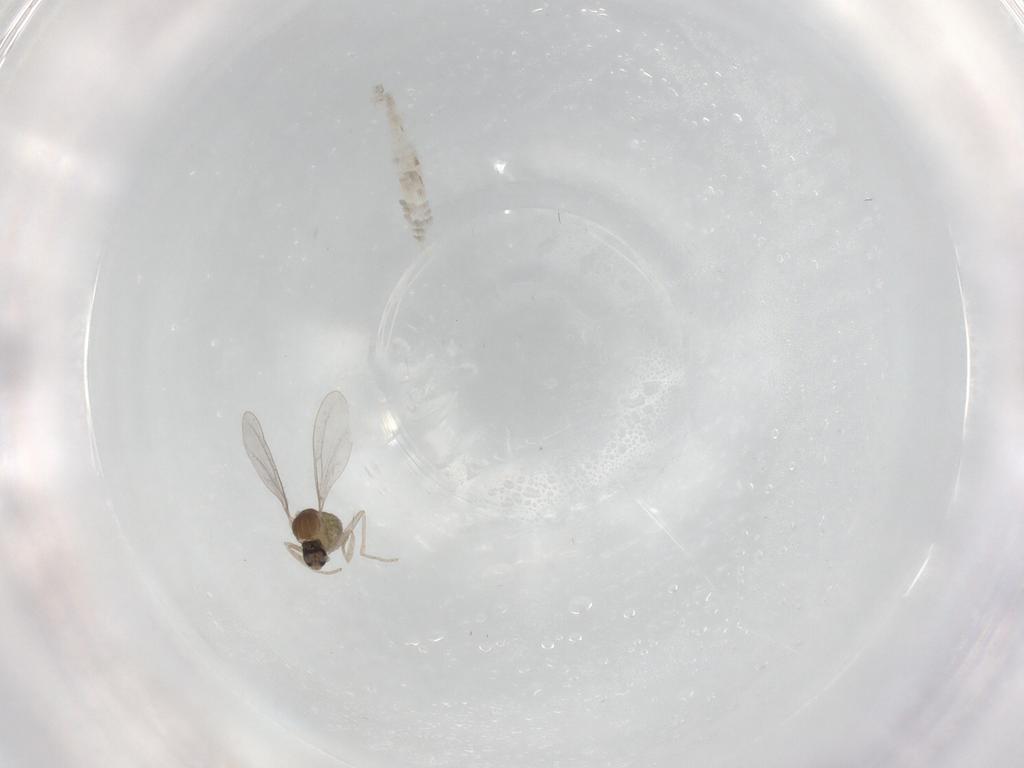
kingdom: Animalia
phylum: Arthropoda
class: Insecta
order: Diptera
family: Cecidomyiidae
